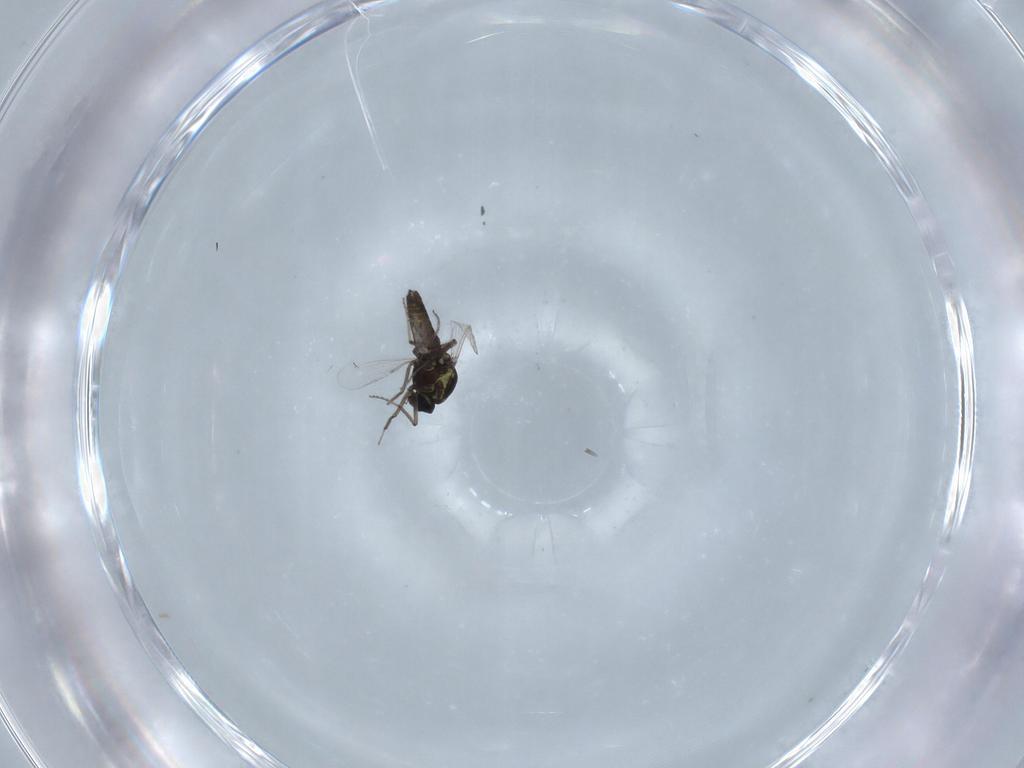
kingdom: Animalia
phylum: Arthropoda
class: Insecta
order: Diptera
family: Ceratopogonidae
